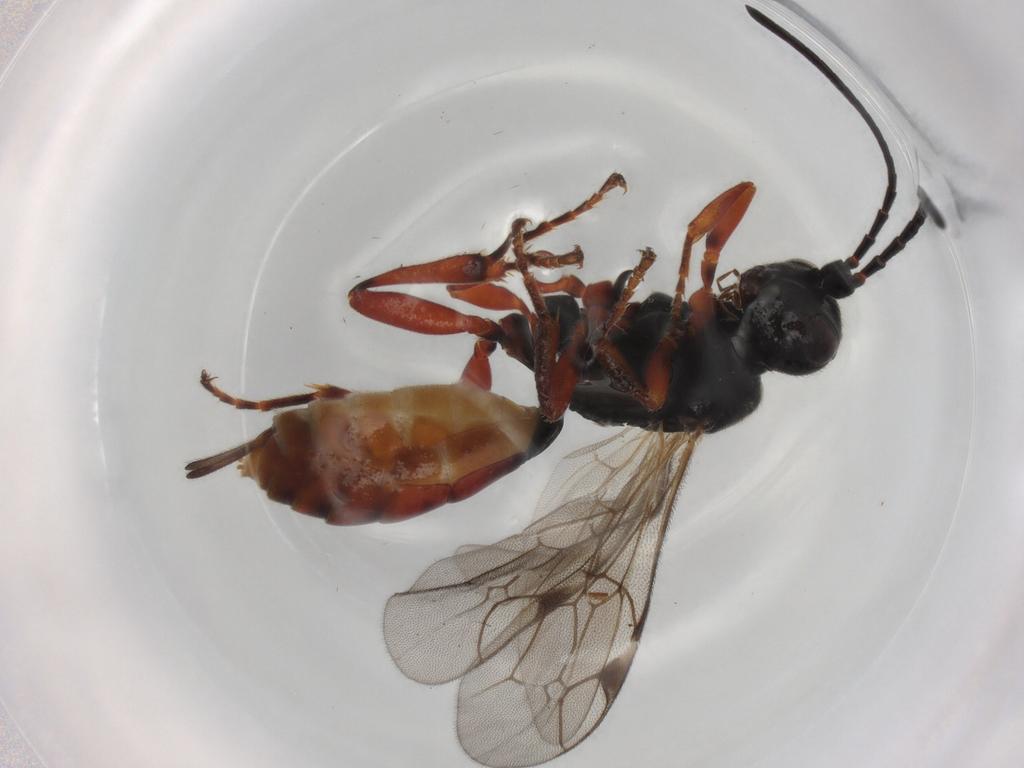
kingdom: Animalia
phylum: Arthropoda
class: Insecta
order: Hymenoptera
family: Ichneumonidae
